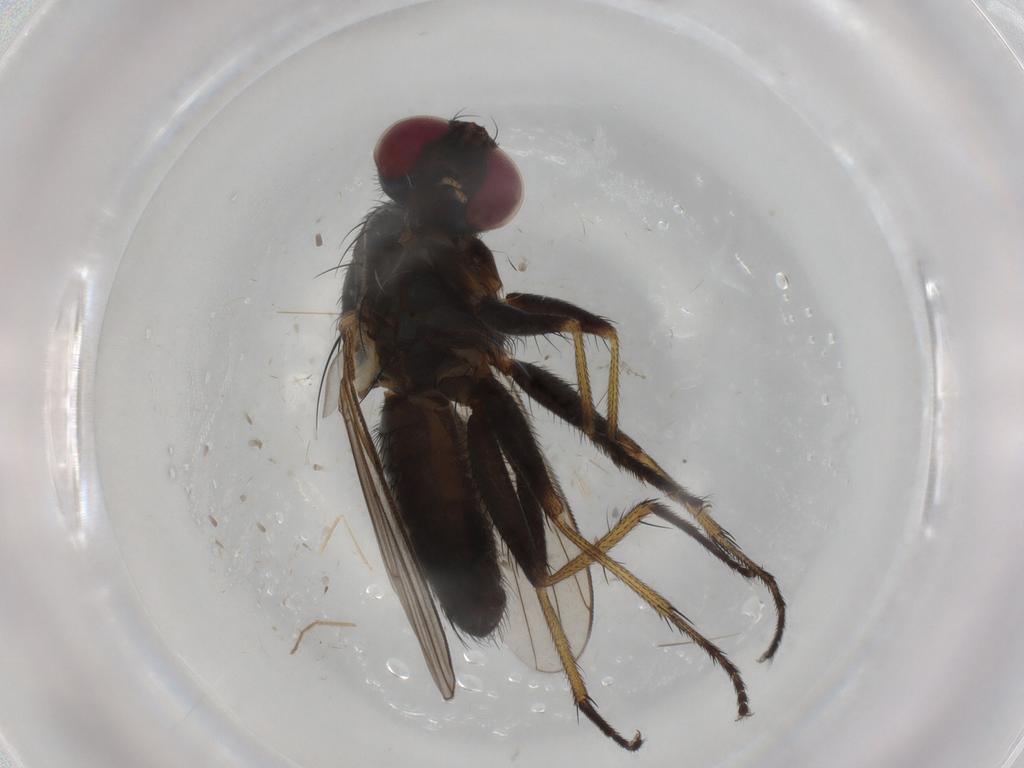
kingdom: Animalia
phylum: Arthropoda
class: Insecta
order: Diptera
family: Muscidae
